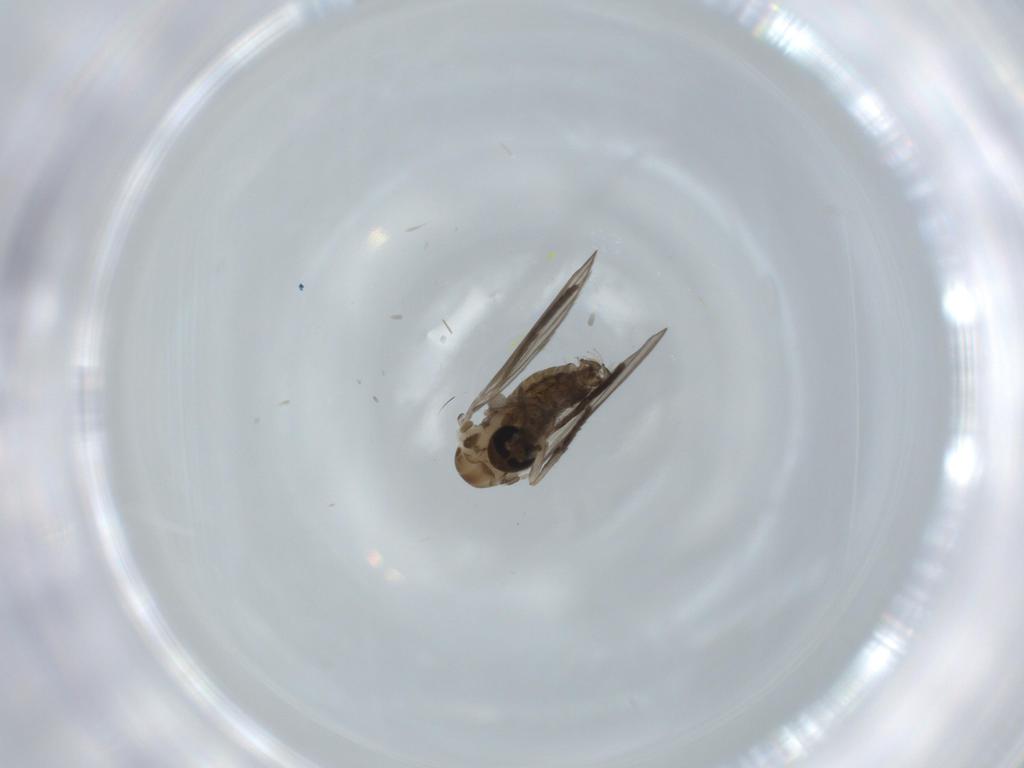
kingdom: Animalia
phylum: Arthropoda
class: Insecta
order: Diptera
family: Psychodidae
